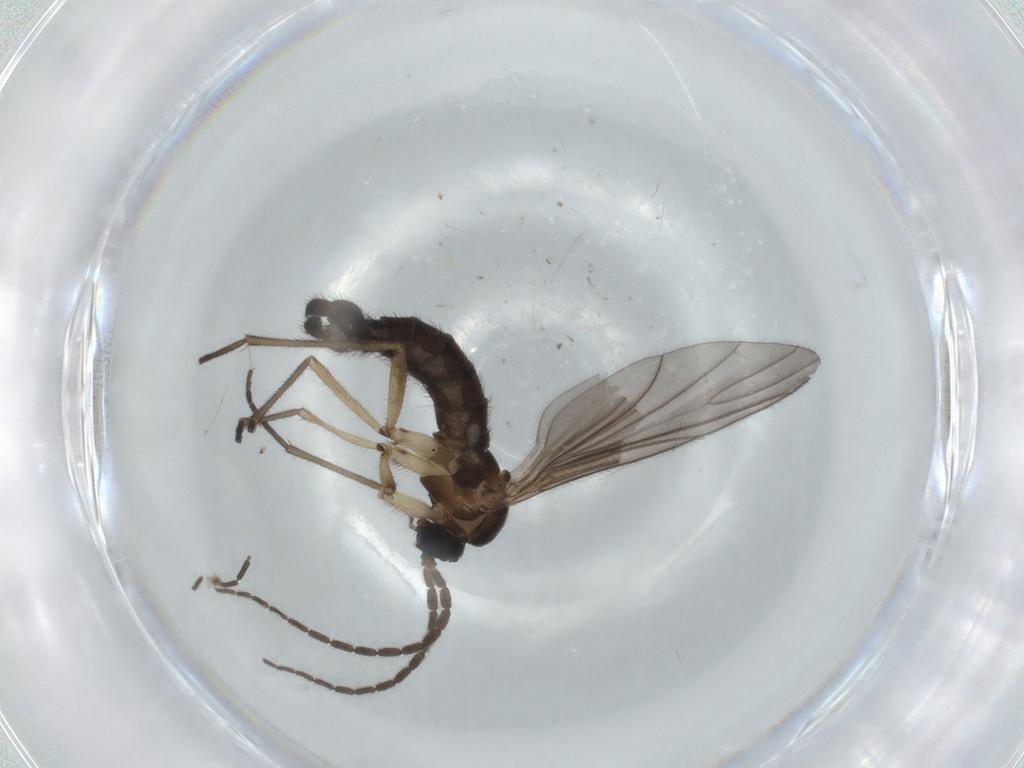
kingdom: Animalia
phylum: Arthropoda
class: Insecta
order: Diptera
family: Sciaridae
